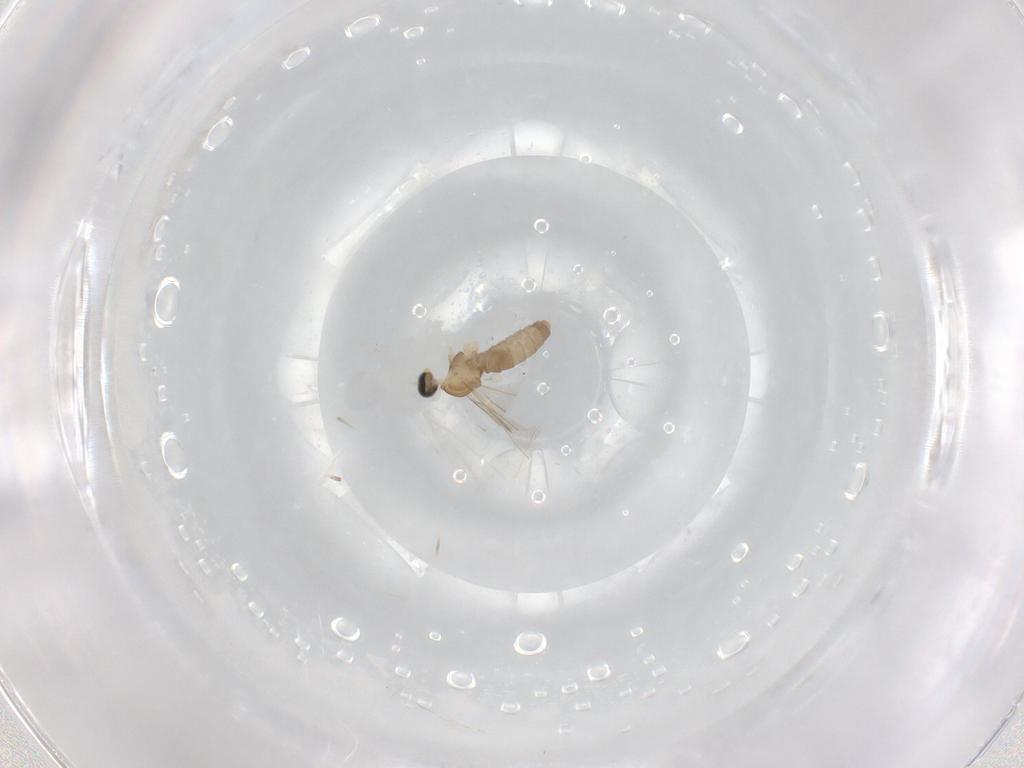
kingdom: Animalia
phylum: Arthropoda
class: Insecta
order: Diptera
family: Cecidomyiidae
